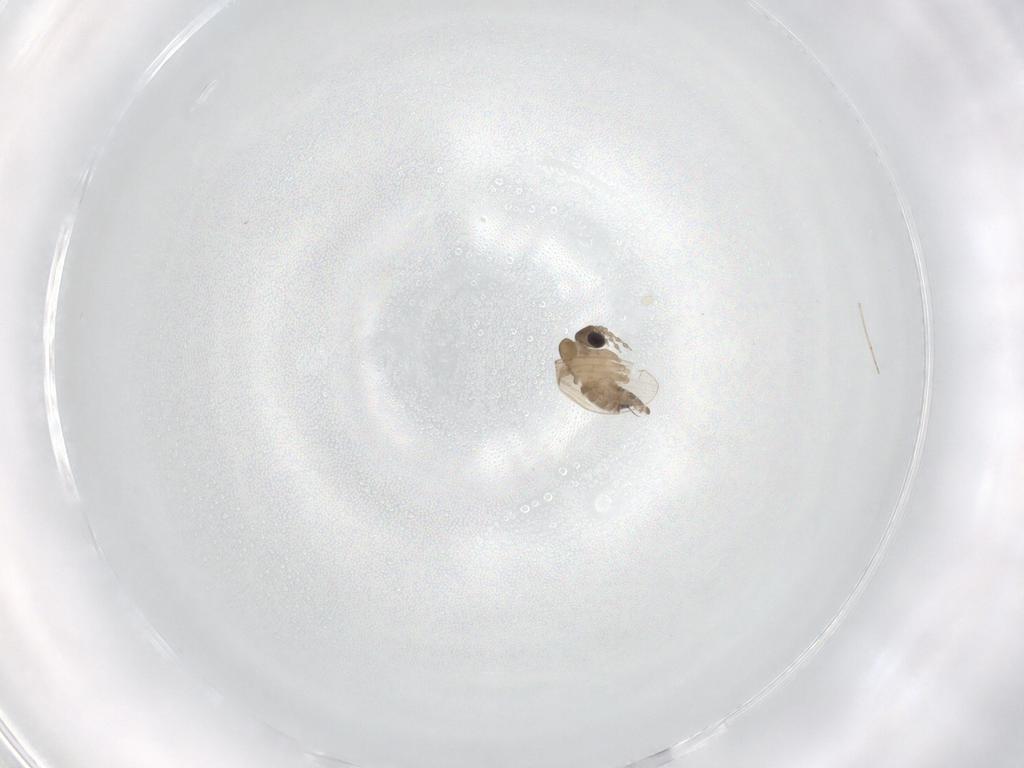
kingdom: Animalia
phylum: Arthropoda
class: Insecta
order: Diptera
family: Psychodidae
